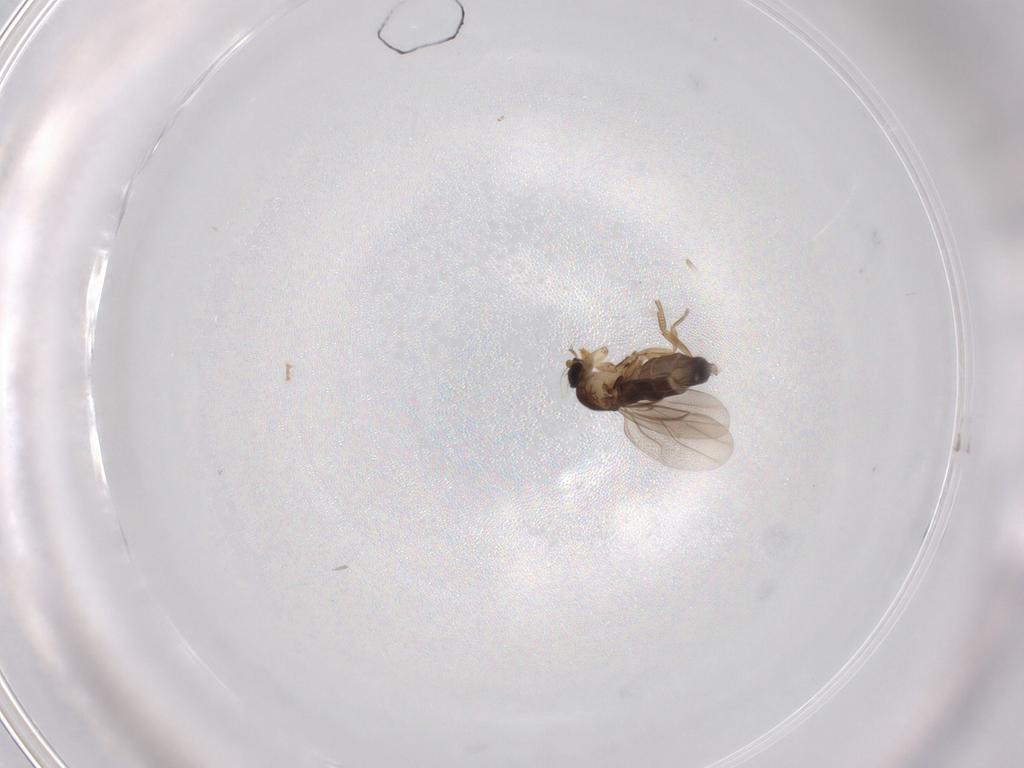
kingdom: Animalia
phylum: Arthropoda
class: Insecta
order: Diptera
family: Phoridae
